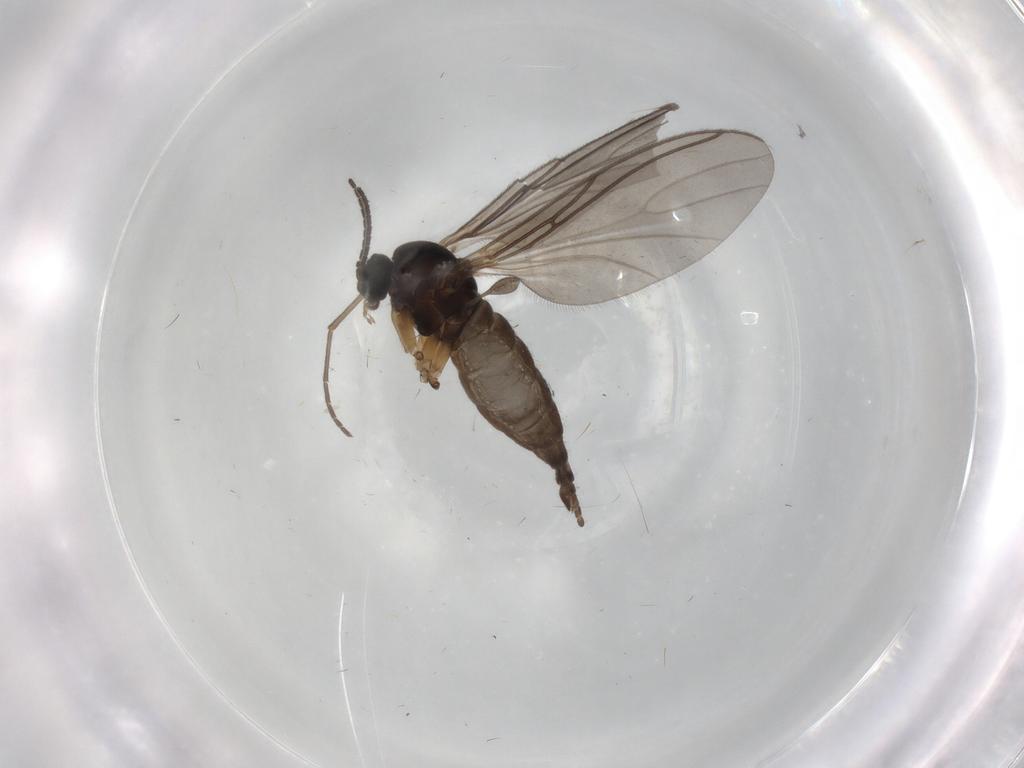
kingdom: Animalia
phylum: Arthropoda
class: Insecta
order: Diptera
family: Sciaridae
